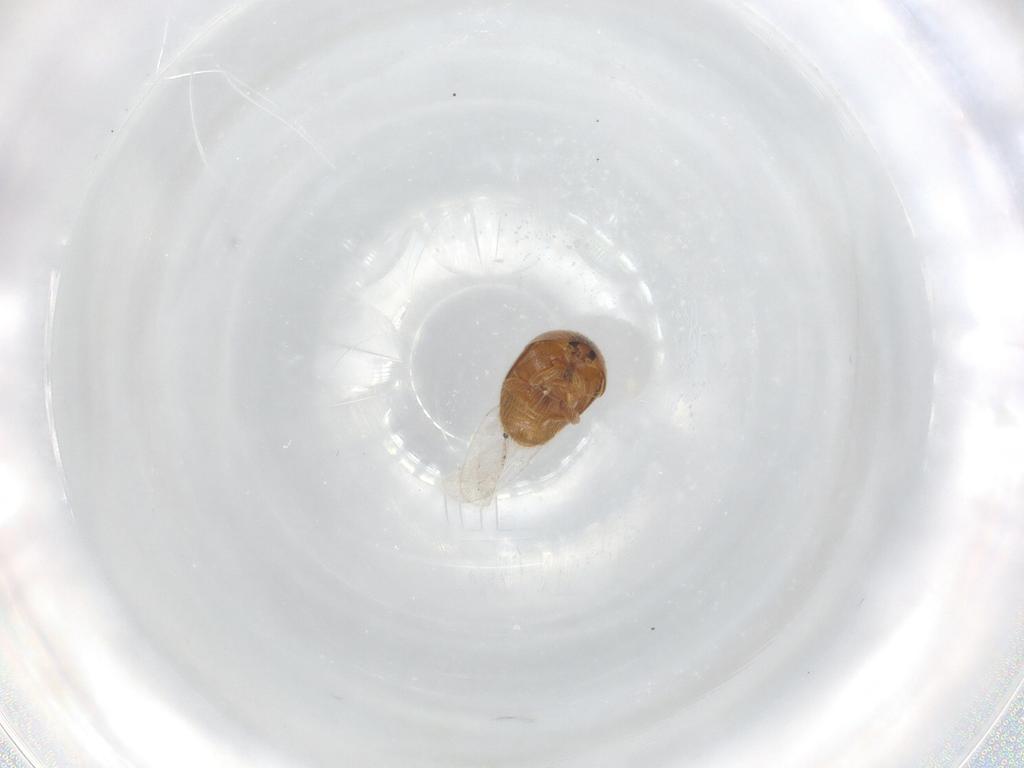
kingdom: Animalia
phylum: Arthropoda
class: Insecta
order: Coleoptera
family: Corylophidae
